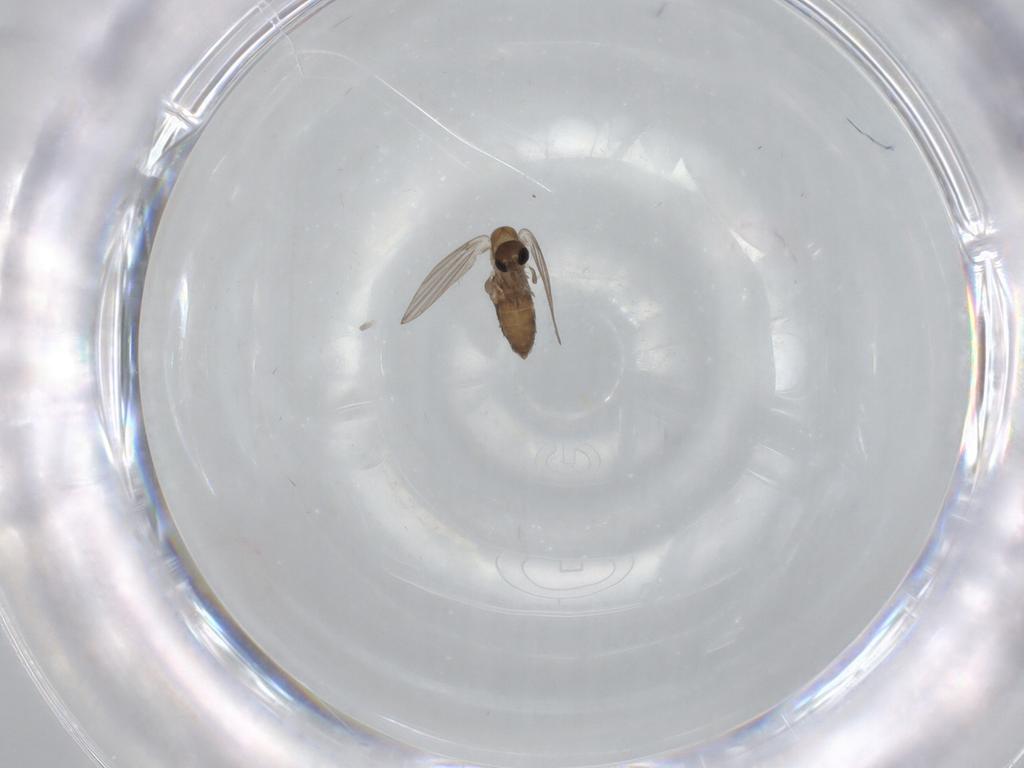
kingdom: Animalia
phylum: Arthropoda
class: Insecta
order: Diptera
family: Phoridae
